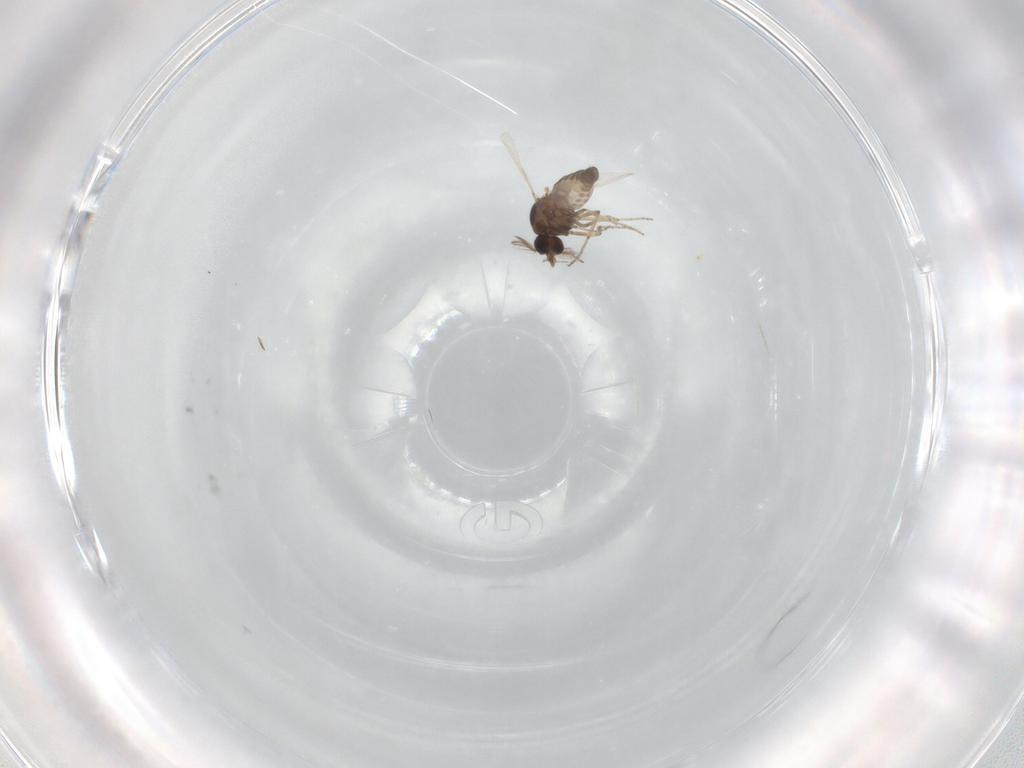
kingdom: Animalia
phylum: Arthropoda
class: Insecta
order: Diptera
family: Ceratopogonidae
